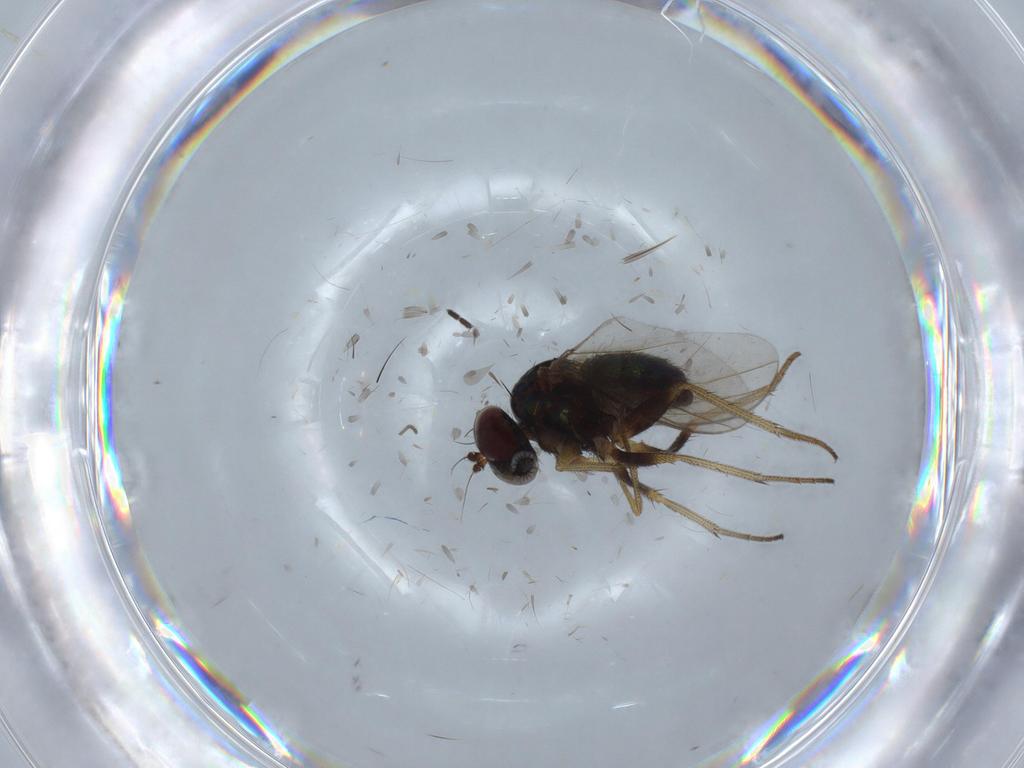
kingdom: Animalia
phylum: Arthropoda
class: Insecta
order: Diptera
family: Dolichopodidae
